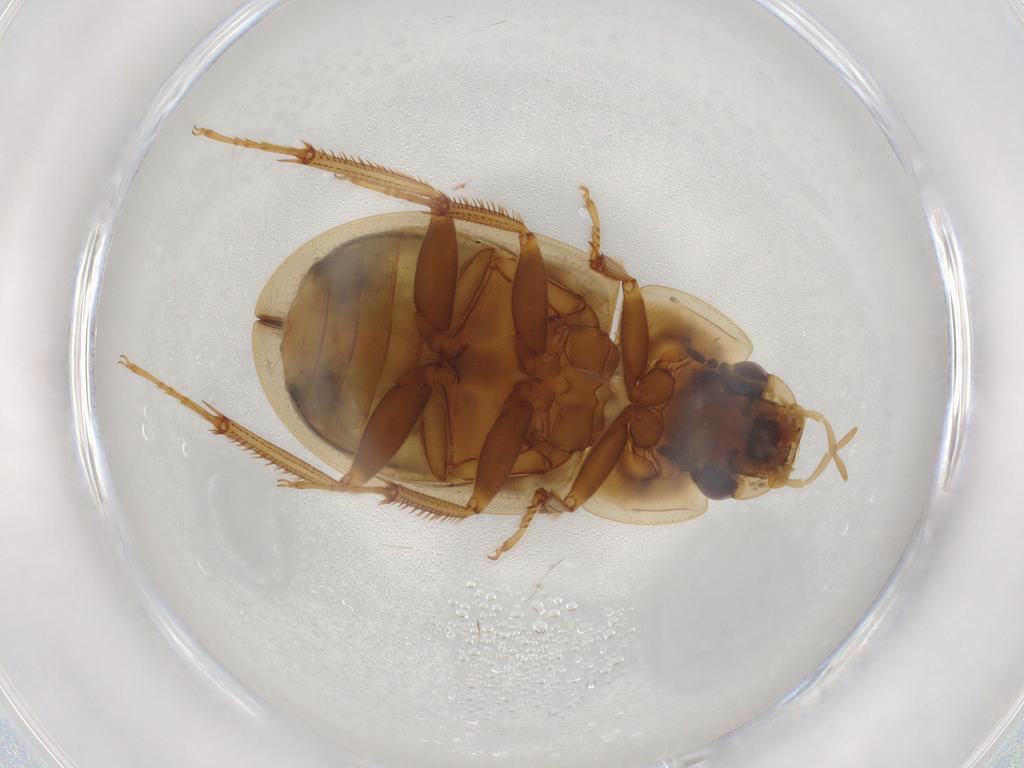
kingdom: Animalia
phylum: Arthropoda
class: Insecta
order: Coleoptera
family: Hydrophilidae
